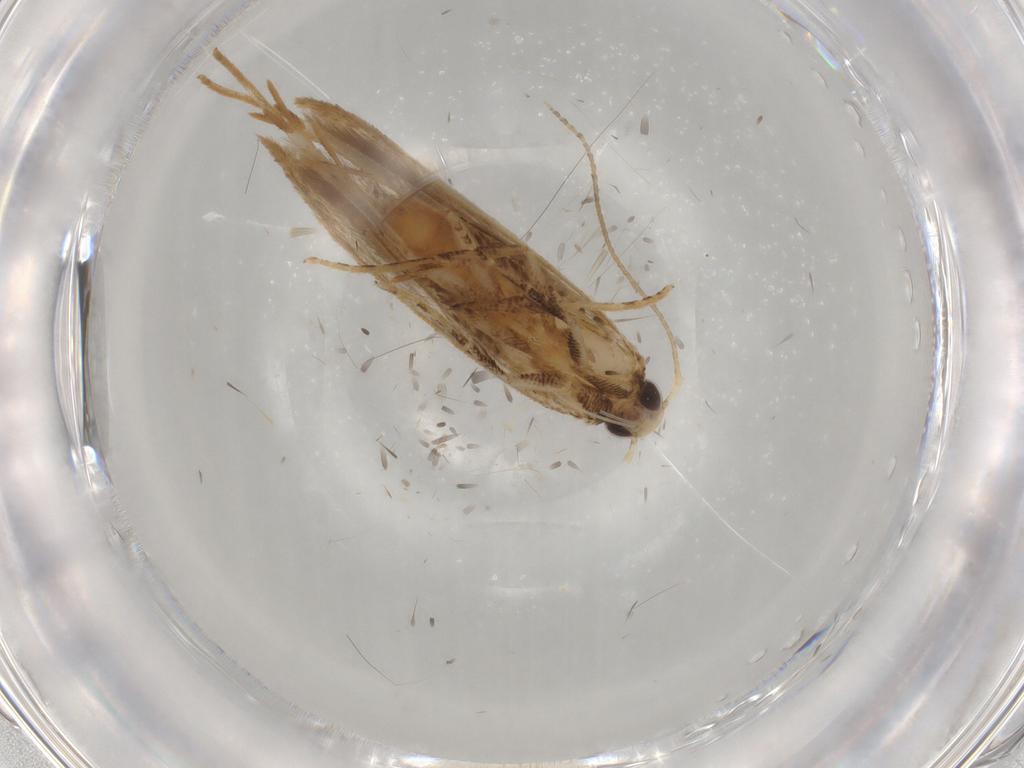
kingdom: Animalia
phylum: Arthropoda
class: Insecta
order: Lepidoptera
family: Gelechiidae
